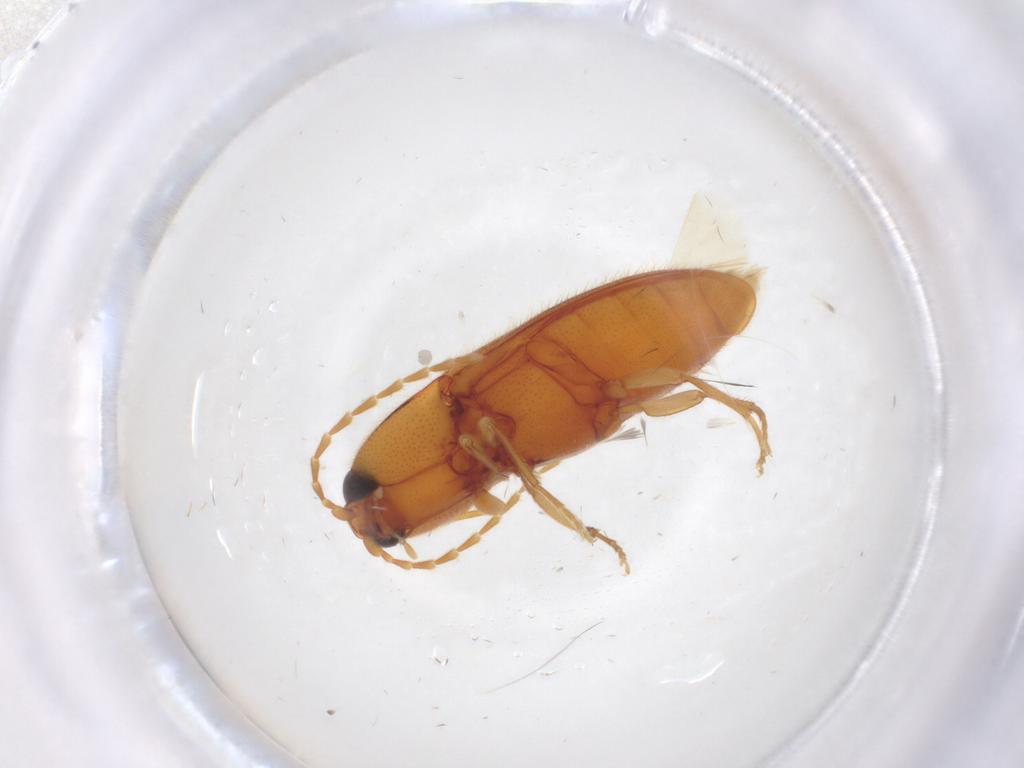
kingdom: Animalia
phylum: Arthropoda
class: Insecta
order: Coleoptera
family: Elateridae
